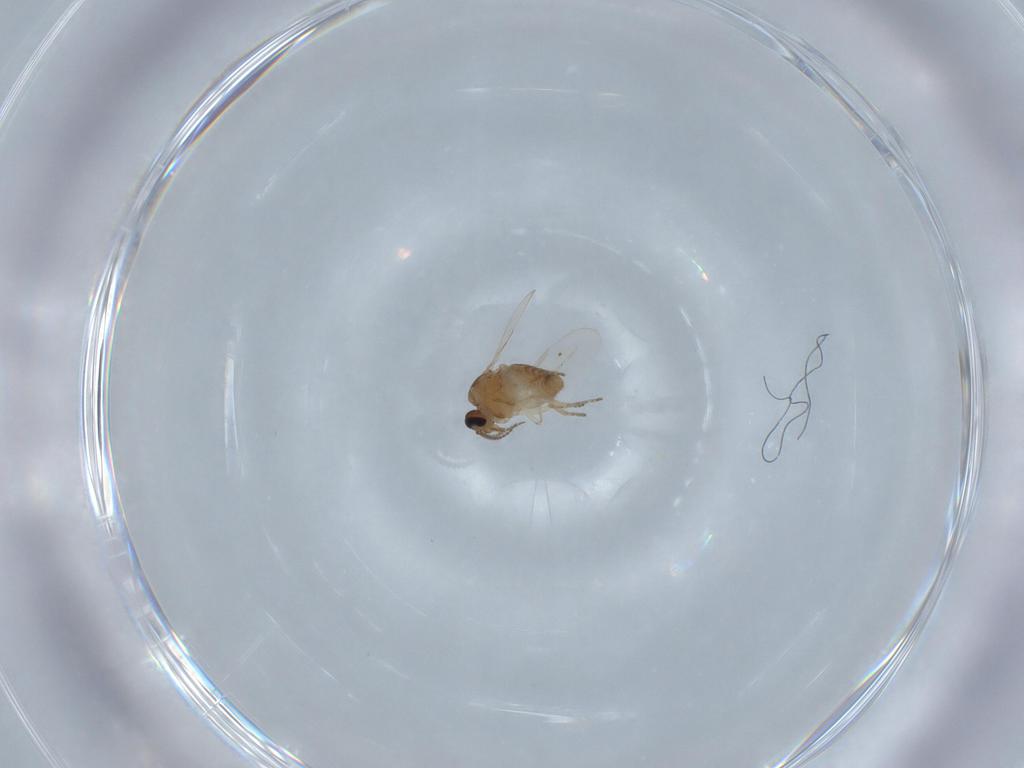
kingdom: Animalia
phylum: Arthropoda
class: Insecta
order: Diptera
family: Ceratopogonidae
